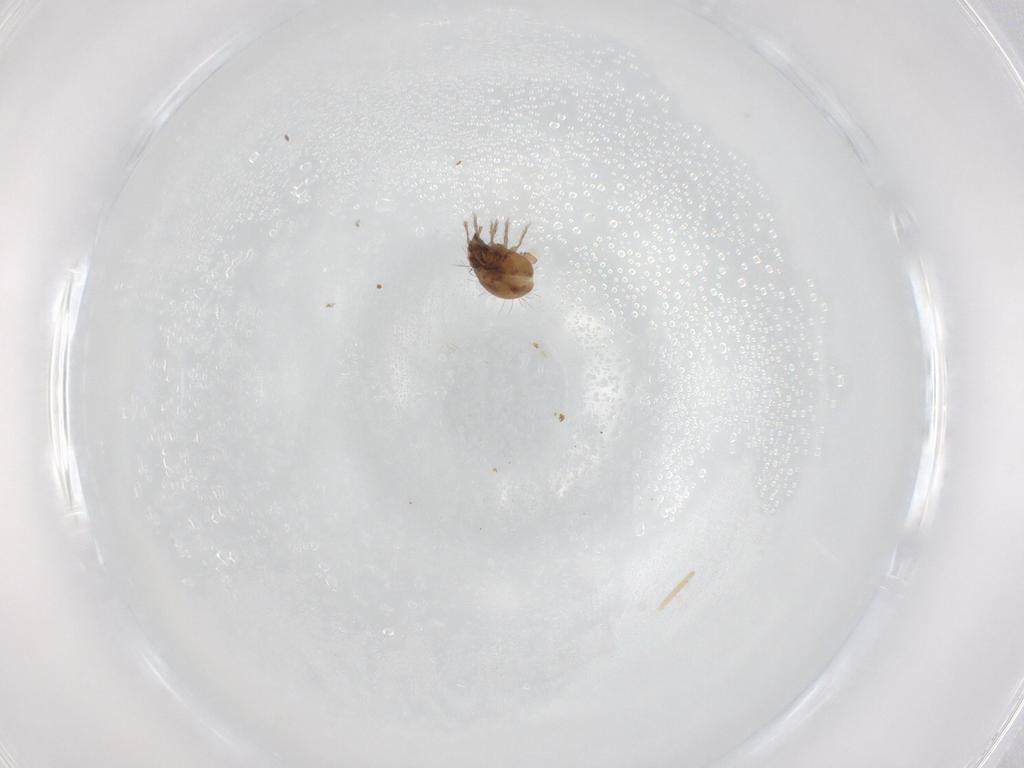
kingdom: Animalia
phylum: Arthropoda
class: Arachnida
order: Sarcoptiformes
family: Humerobatidae
